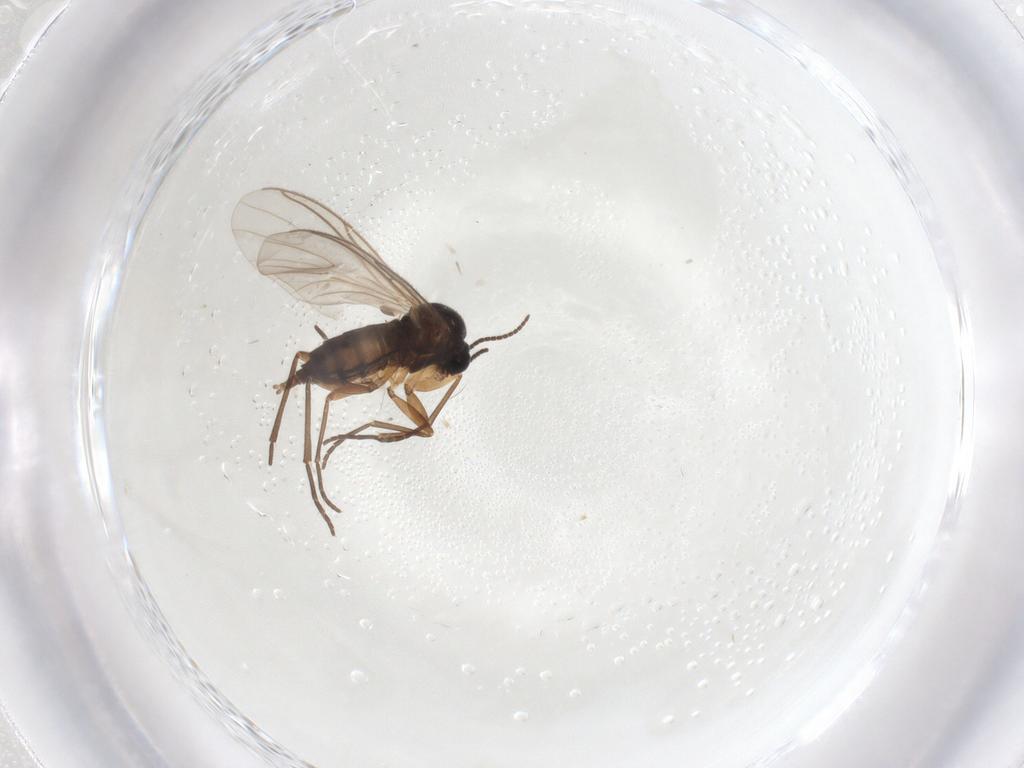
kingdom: Animalia
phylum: Arthropoda
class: Insecta
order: Diptera
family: Sciaridae
